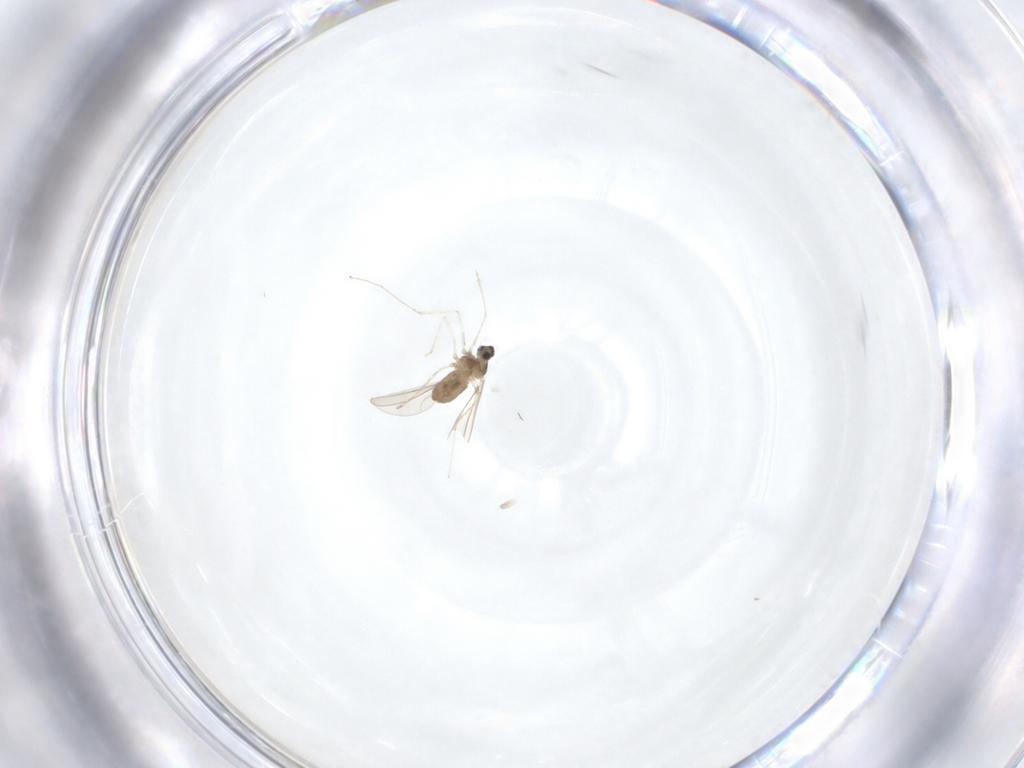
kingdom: Animalia
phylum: Arthropoda
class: Insecta
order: Diptera
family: Cecidomyiidae
